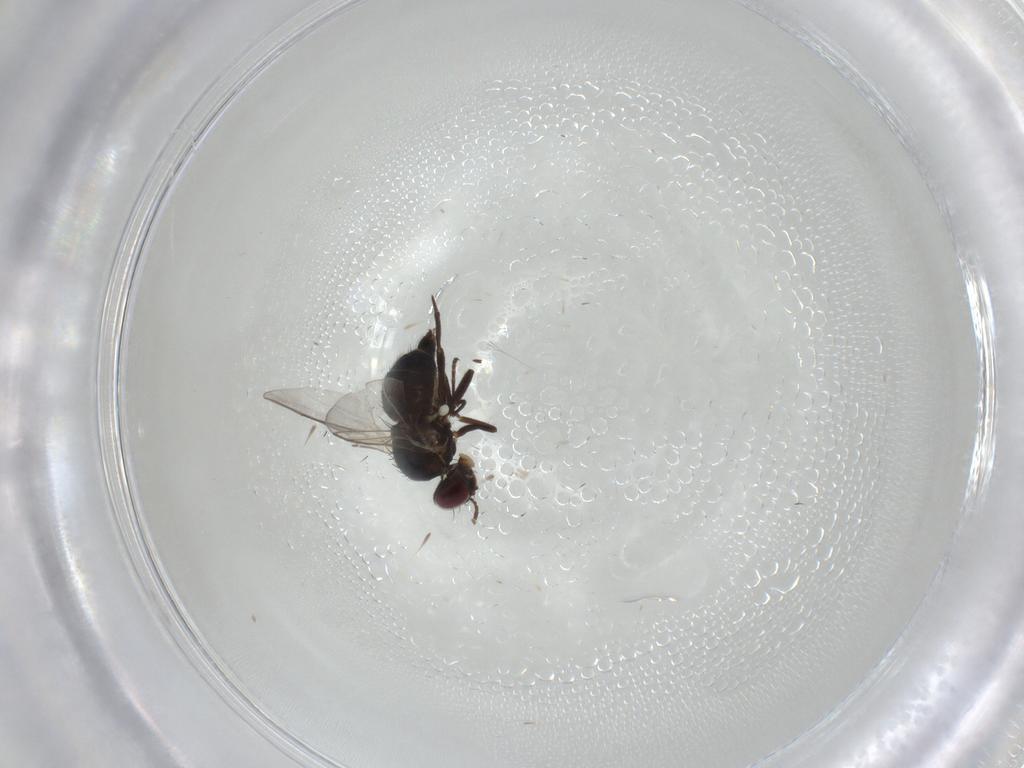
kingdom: Animalia
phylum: Arthropoda
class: Insecta
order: Diptera
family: Agromyzidae
